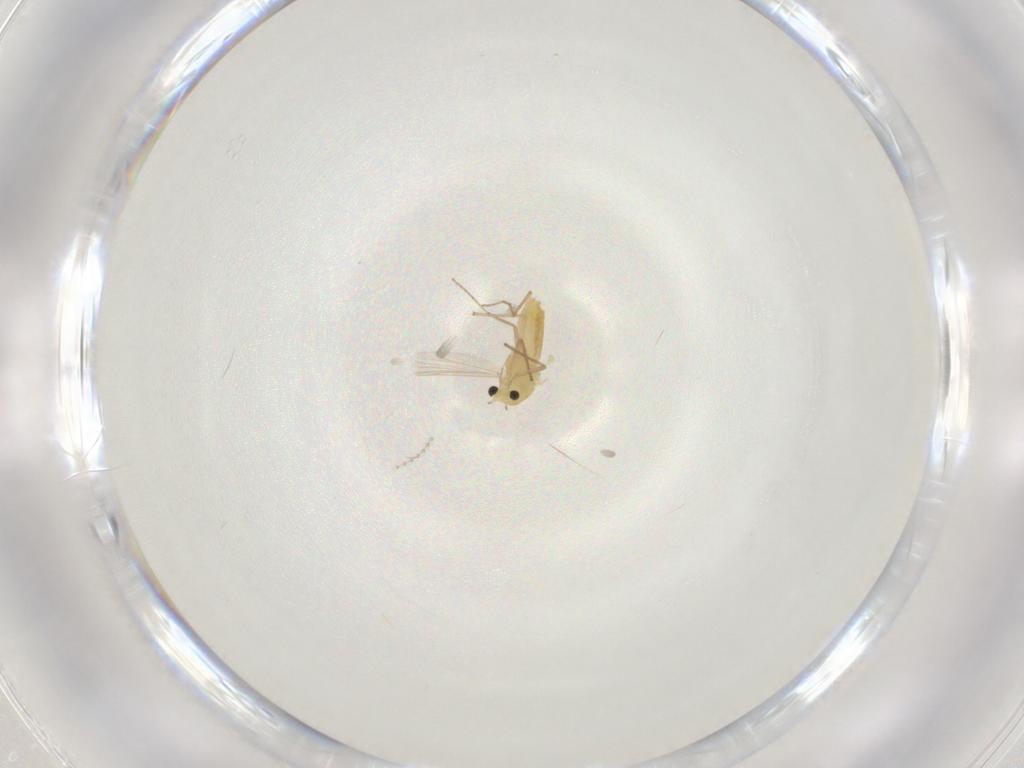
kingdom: Animalia
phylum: Arthropoda
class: Insecta
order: Diptera
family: Chironomidae
